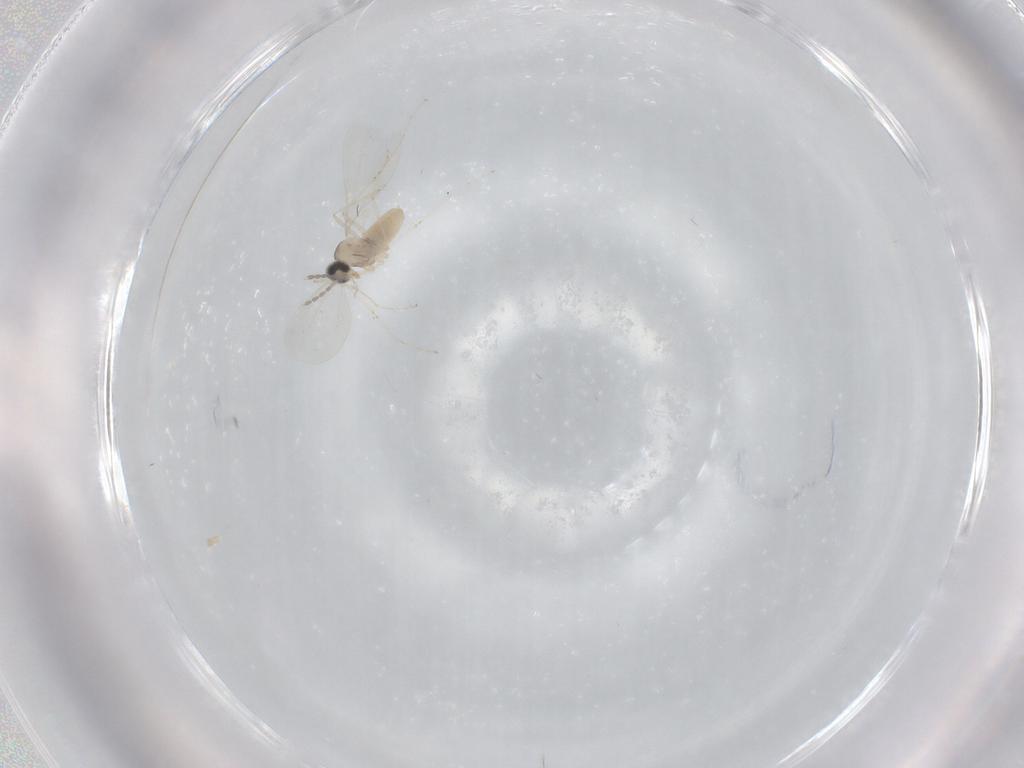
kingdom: Animalia
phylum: Arthropoda
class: Insecta
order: Diptera
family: Cecidomyiidae
